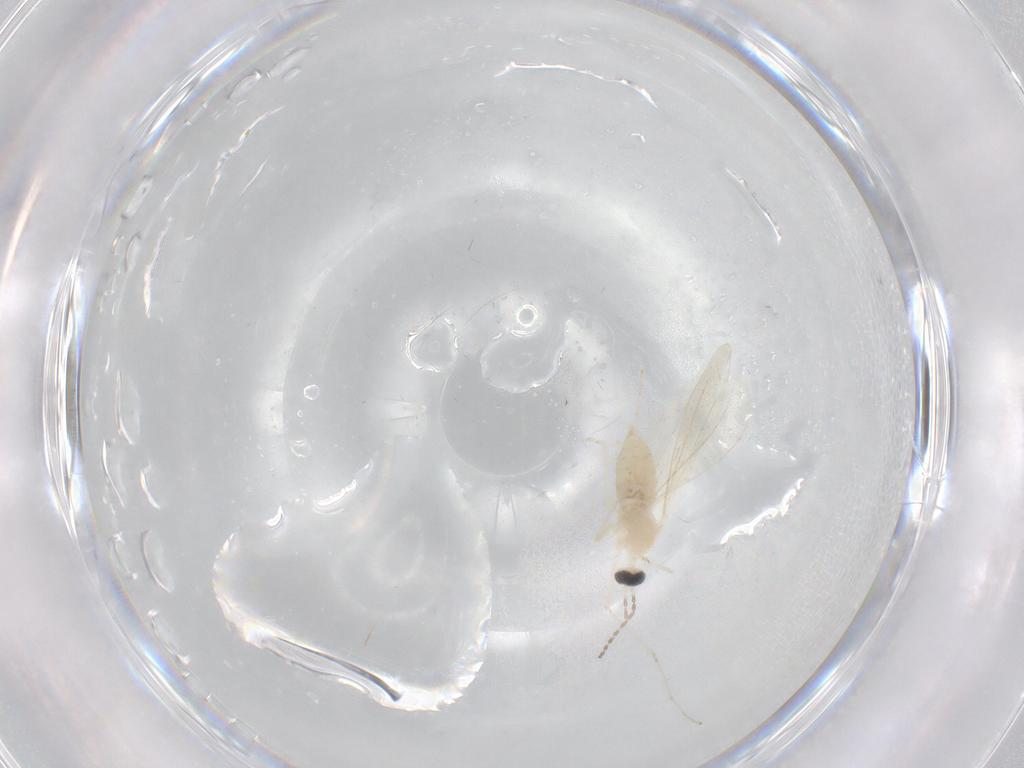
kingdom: Animalia
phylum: Arthropoda
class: Insecta
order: Diptera
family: Cecidomyiidae
